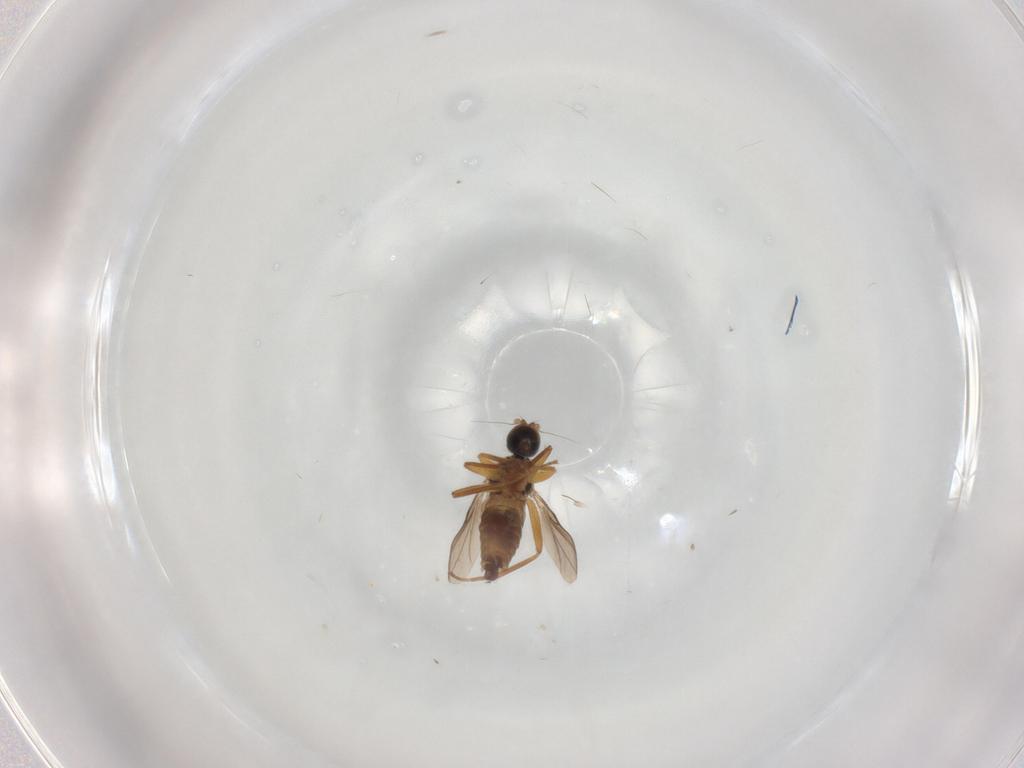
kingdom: Animalia
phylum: Arthropoda
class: Insecta
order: Diptera
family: Hybotidae
